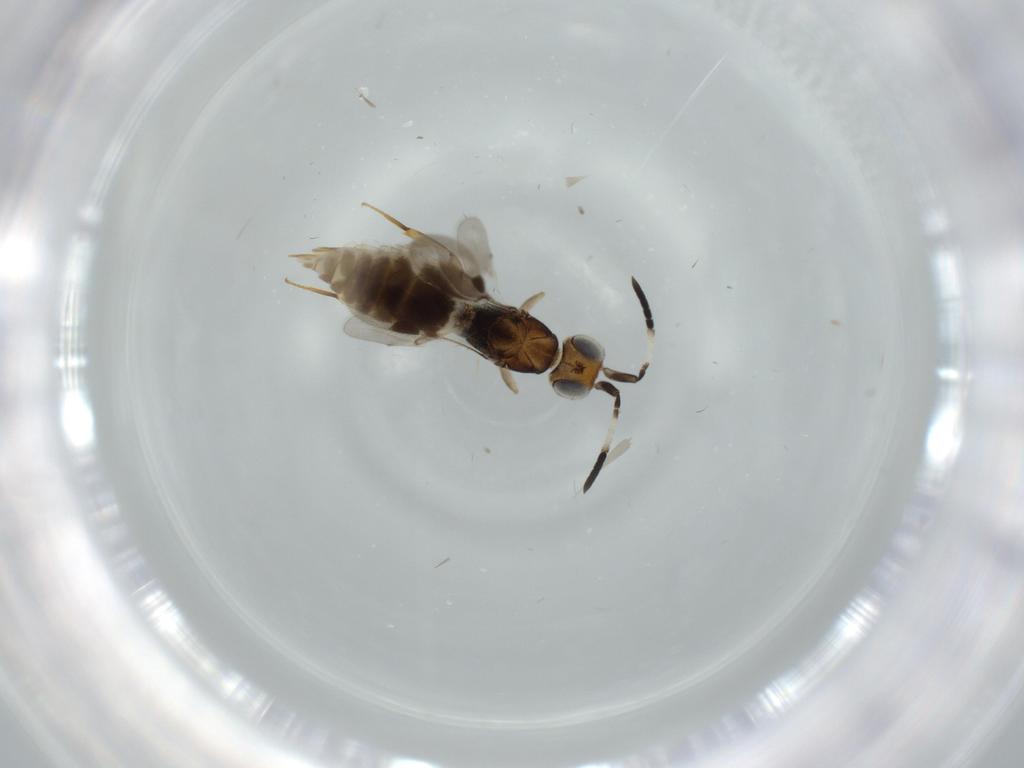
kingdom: Animalia
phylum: Arthropoda
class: Insecta
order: Hymenoptera
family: Diparidae
